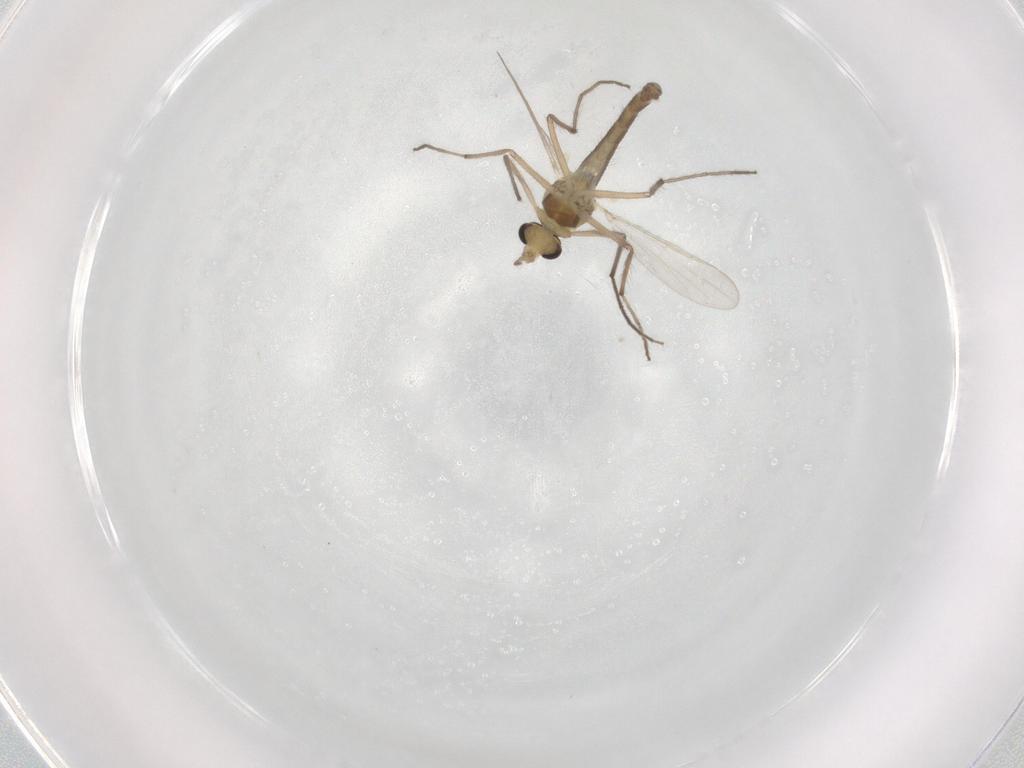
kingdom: Animalia
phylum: Arthropoda
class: Insecta
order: Diptera
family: Chironomidae
